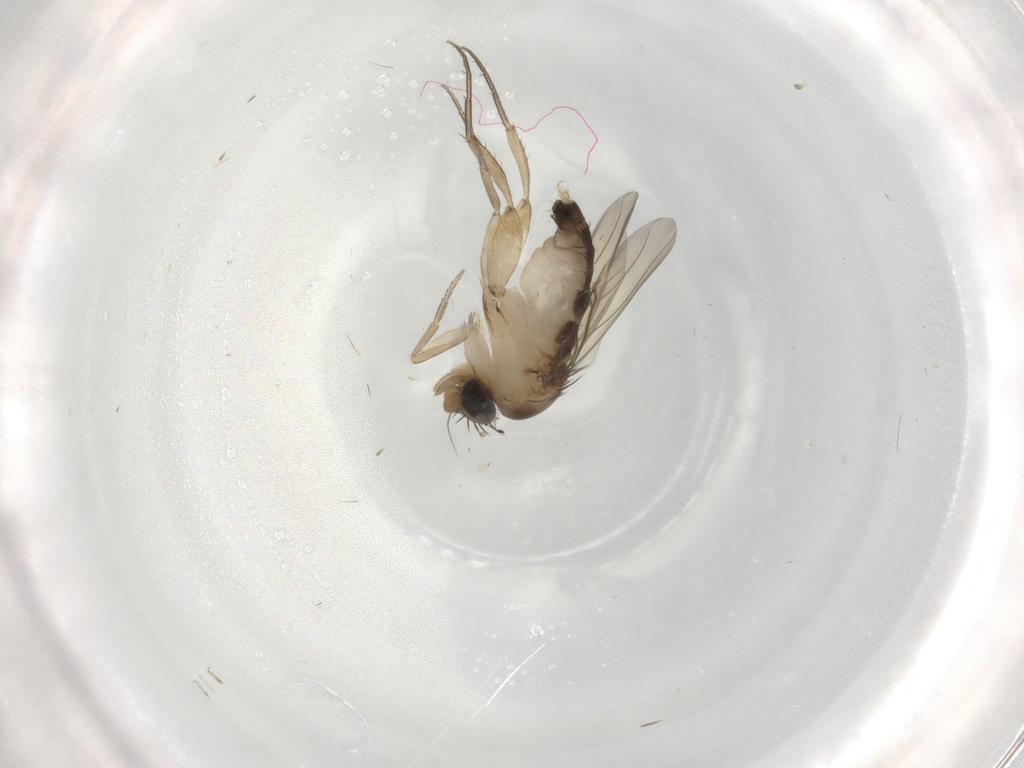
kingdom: Animalia
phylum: Arthropoda
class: Insecta
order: Diptera
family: Phoridae
